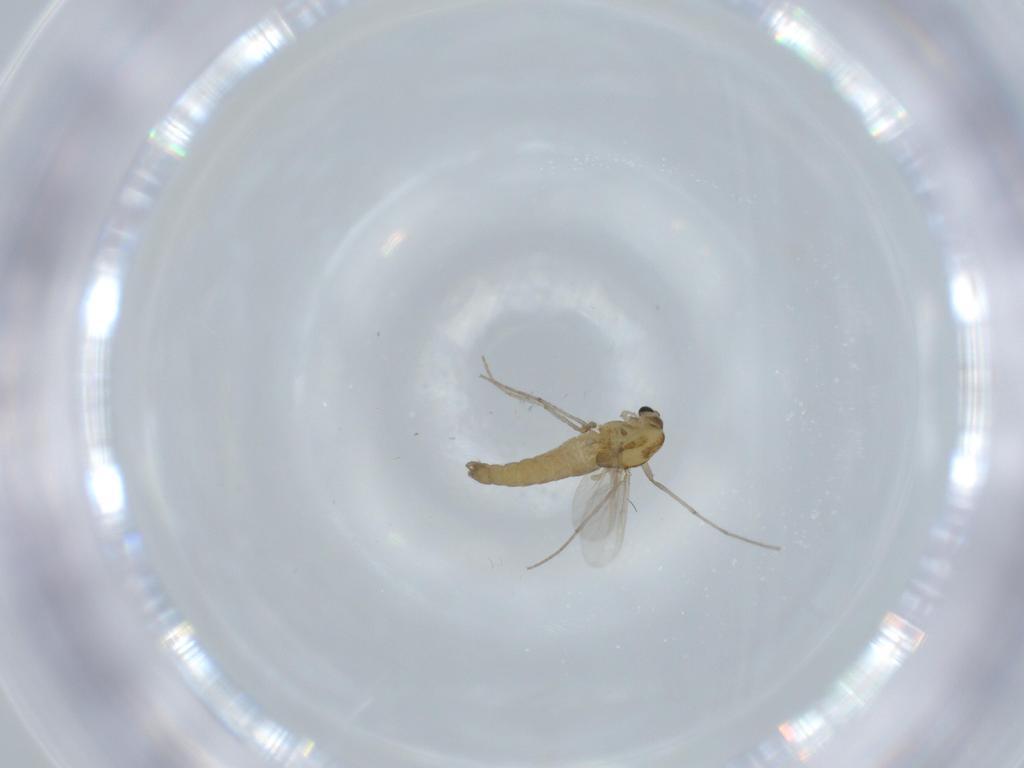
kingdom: Animalia
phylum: Arthropoda
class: Insecta
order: Diptera
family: Chironomidae
